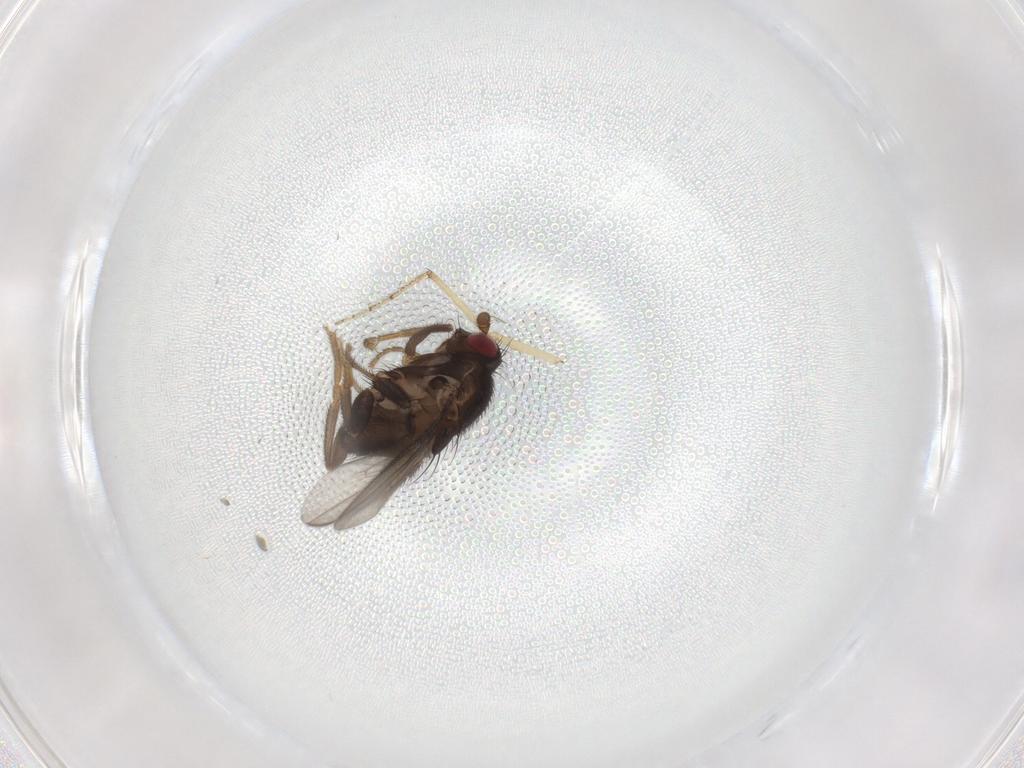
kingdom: Animalia
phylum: Arthropoda
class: Insecta
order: Diptera
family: Sphaeroceridae
